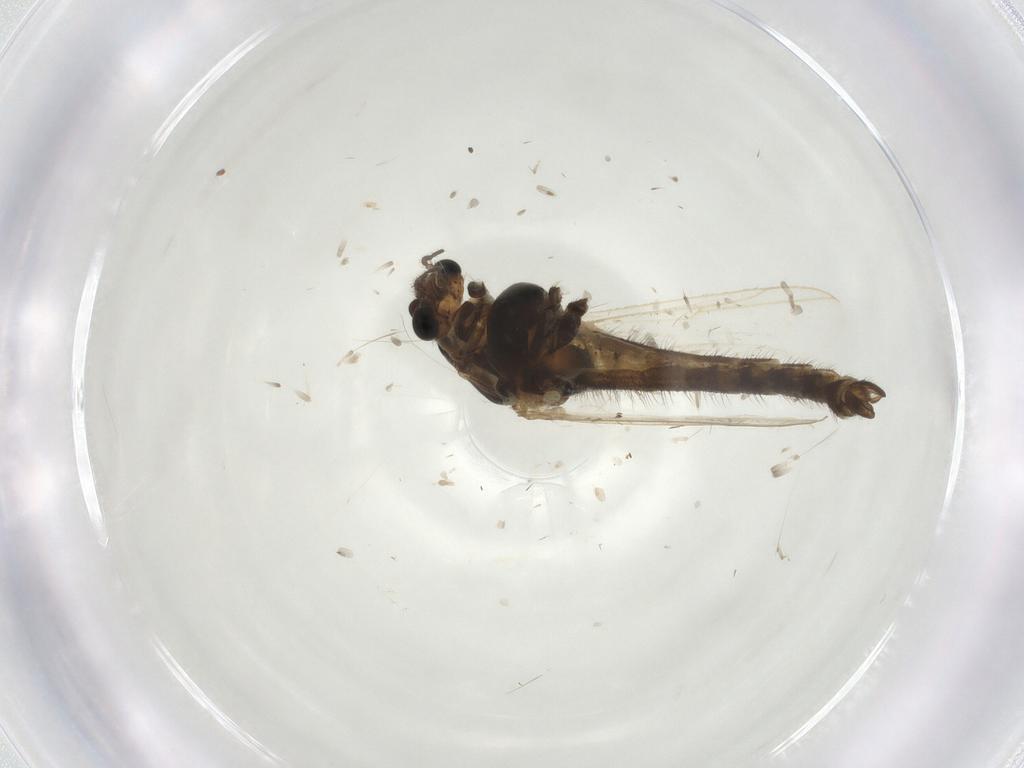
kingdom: Animalia
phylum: Arthropoda
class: Insecta
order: Diptera
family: Chironomidae
